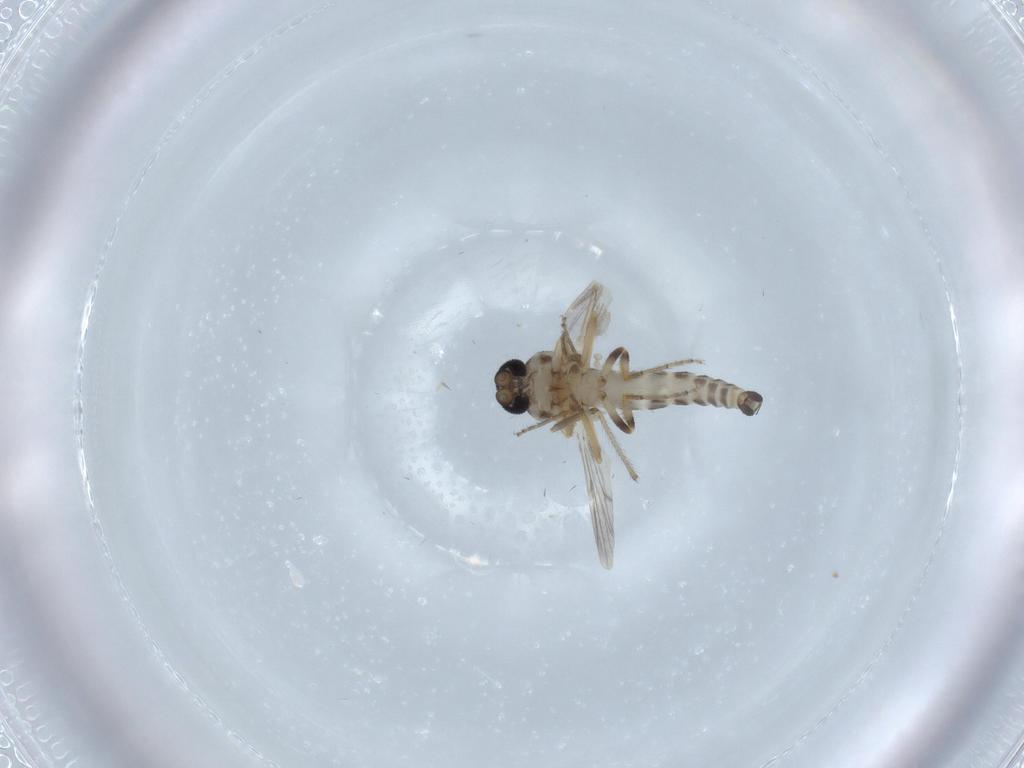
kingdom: Animalia
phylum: Arthropoda
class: Insecta
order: Diptera
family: Ceratopogonidae
